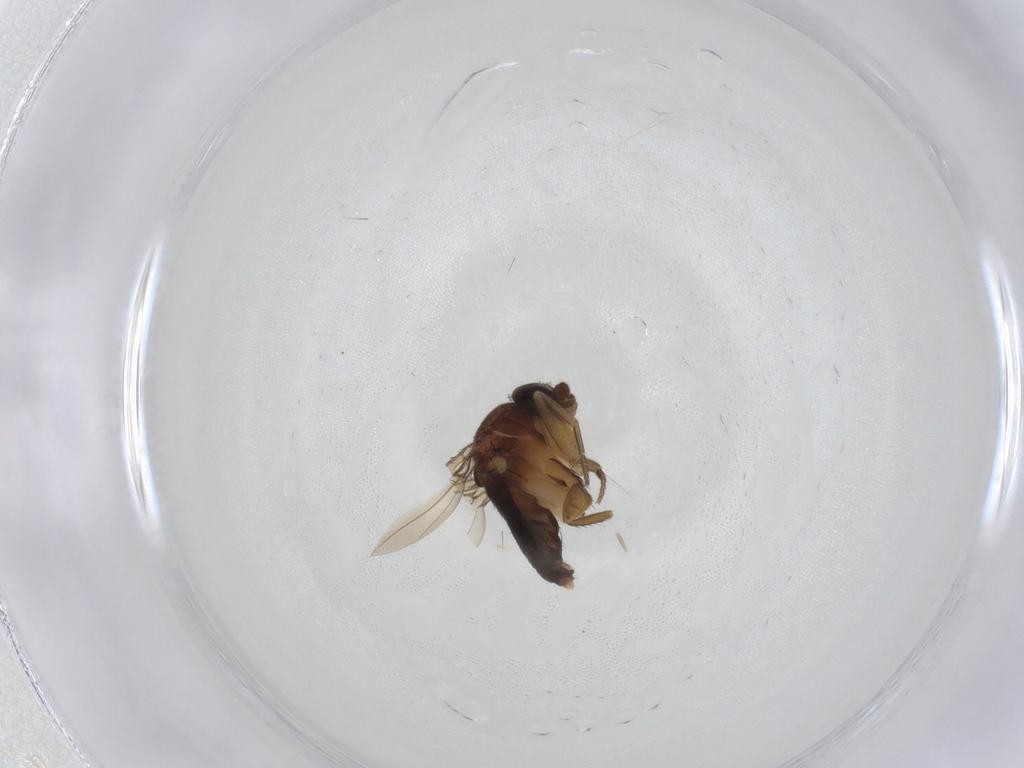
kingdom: Animalia
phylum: Arthropoda
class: Insecta
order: Diptera
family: Phoridae
